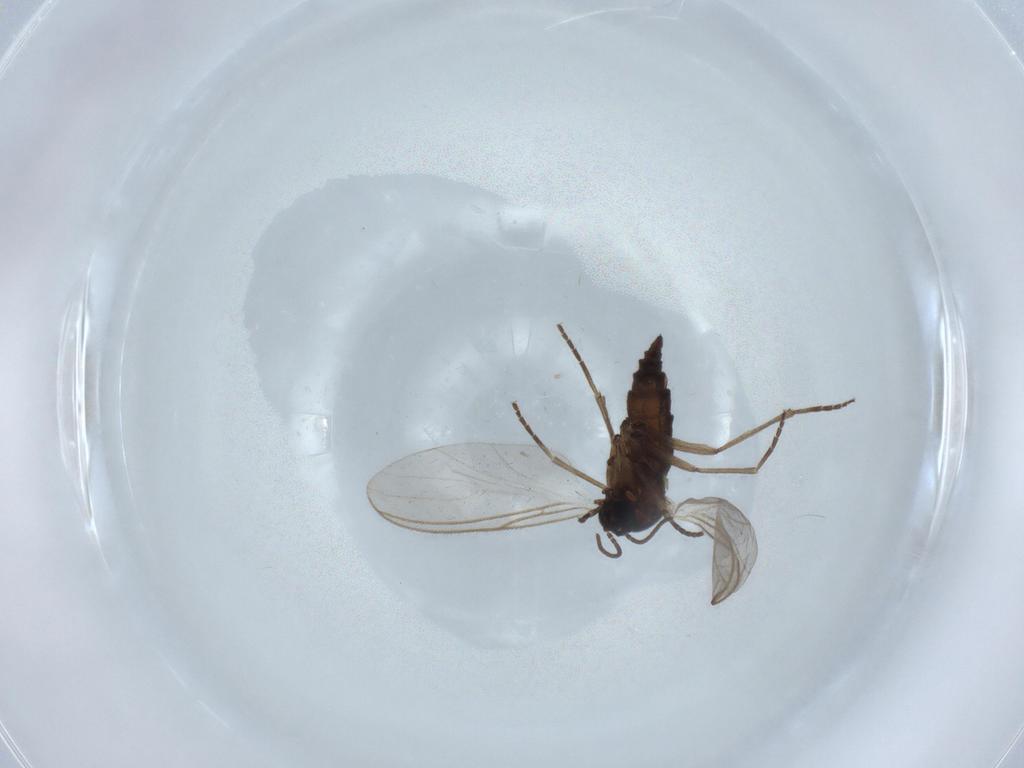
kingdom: Animalia
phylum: Arthropoda
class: Insecta
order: Diptera
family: Sciaridae
